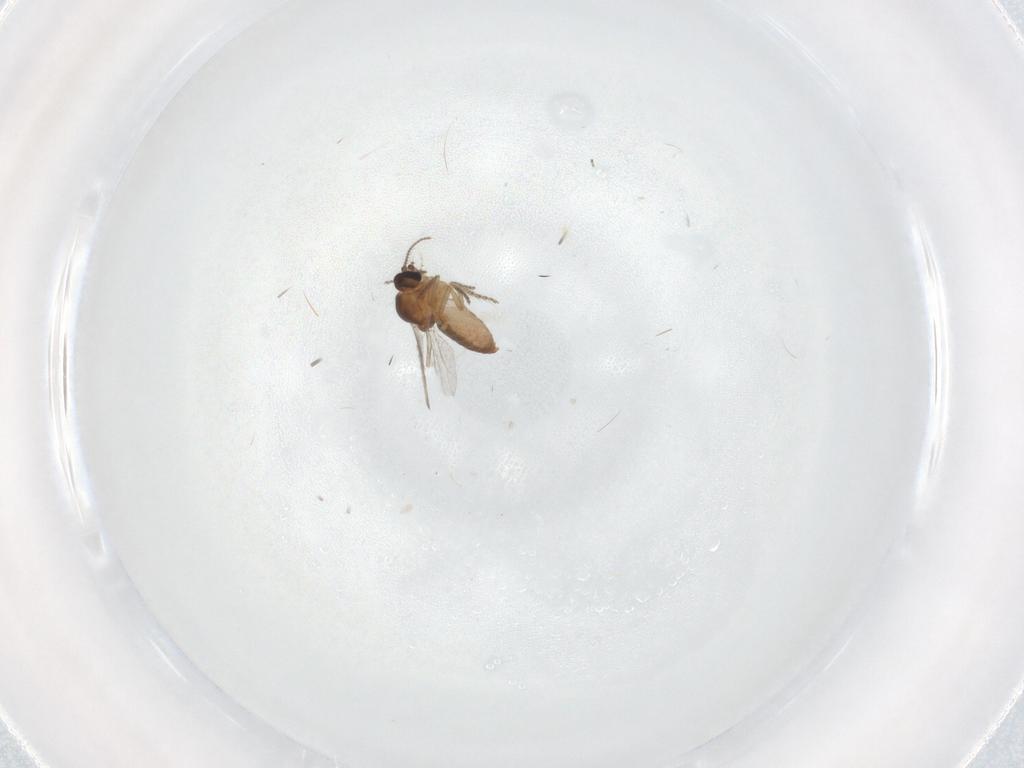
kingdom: Animalia
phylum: Arthropoda
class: Insecta
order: Diptera
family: Ceratopogonidae
